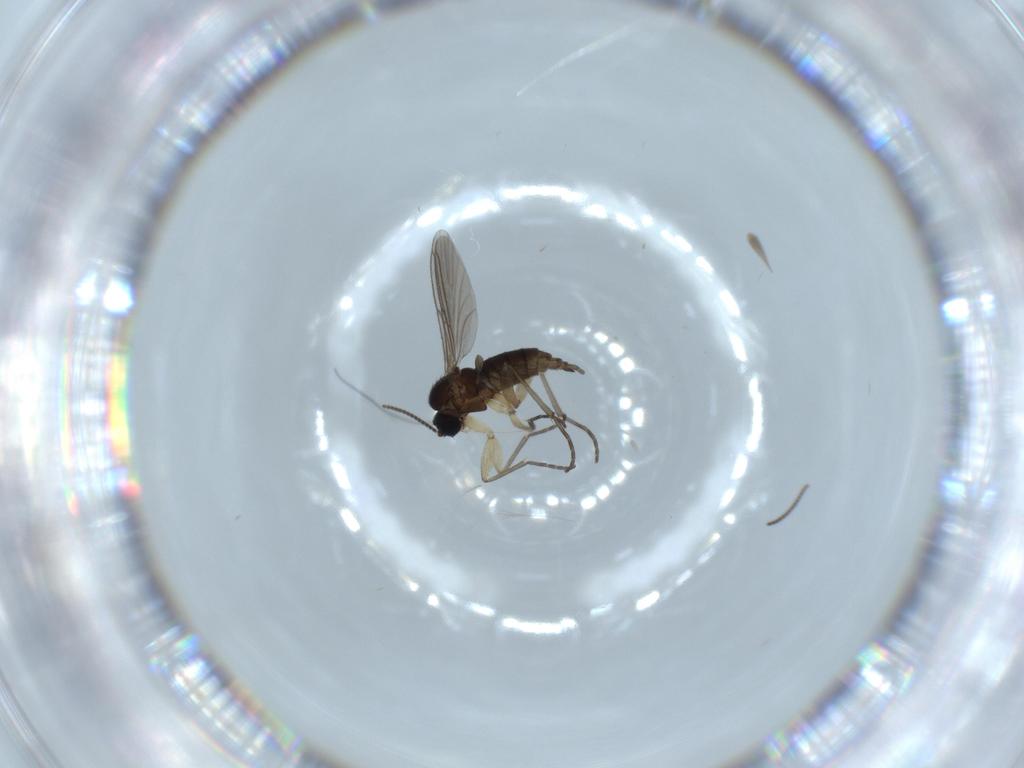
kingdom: Animalia
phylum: Arthropoda
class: Insecta
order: Diptera
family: Sciaridae
